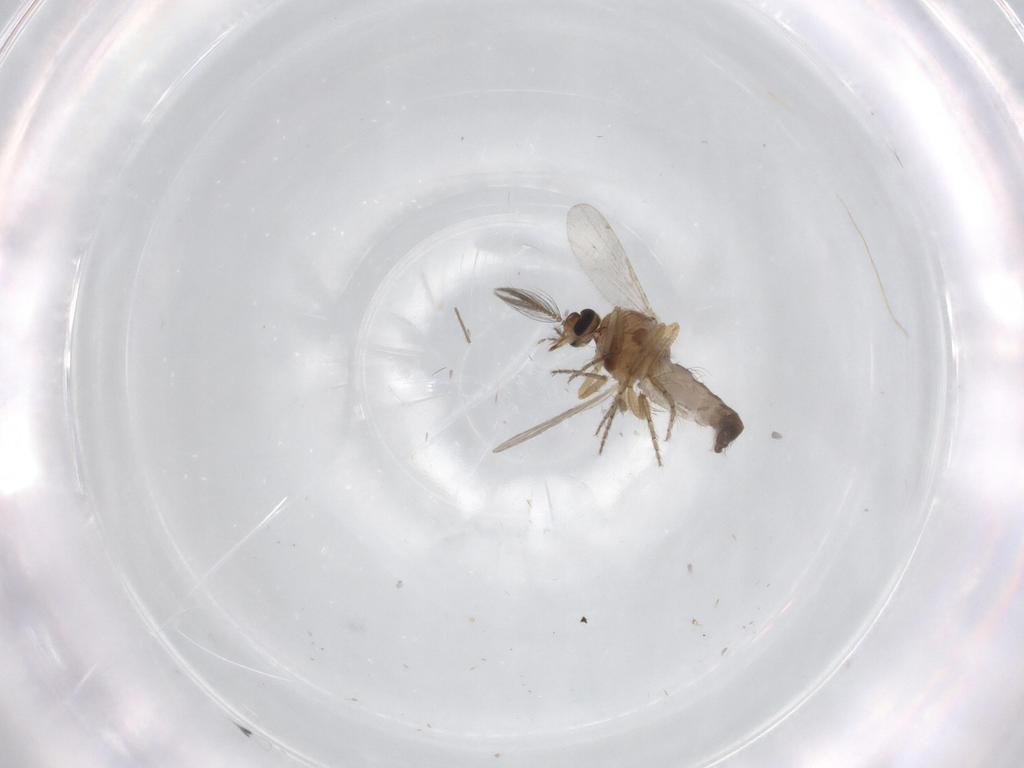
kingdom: Animalia
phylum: Arthropoda
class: Insecta
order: Diptera
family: Ceratopogonidae
